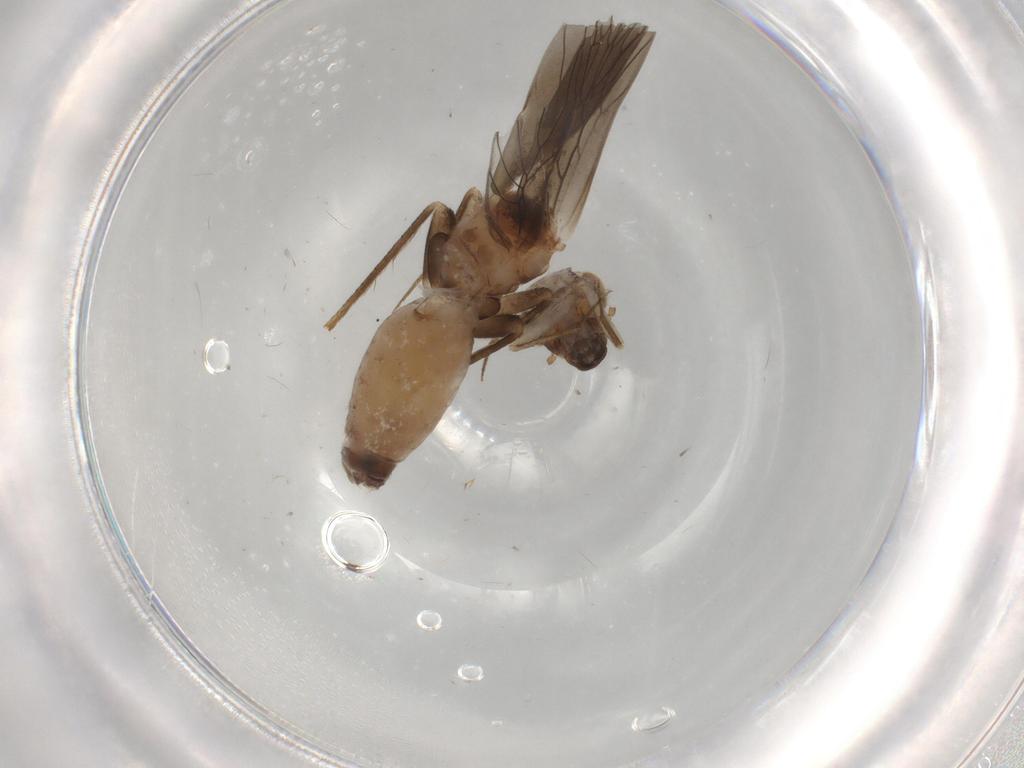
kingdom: Animalia
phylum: Arthropoda
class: Insecta
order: Psocodea
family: Lepidopsocidae
